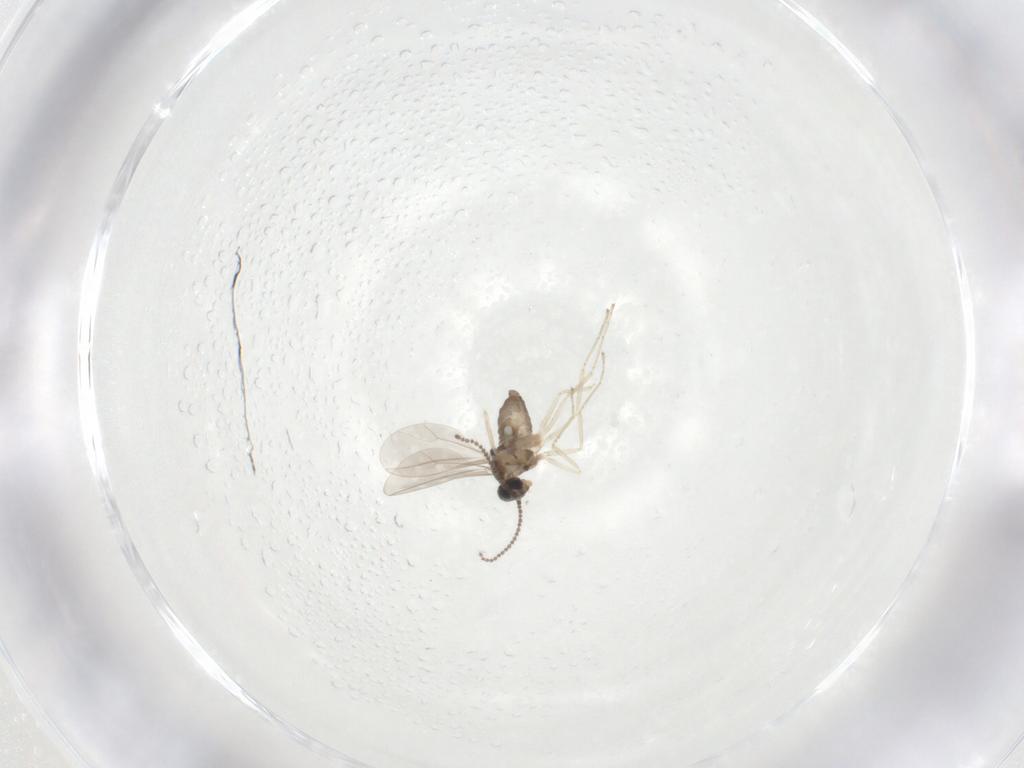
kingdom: Animalia
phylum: Arthropoda
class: Insecta
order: Diptera
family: Cecidomyiidae
